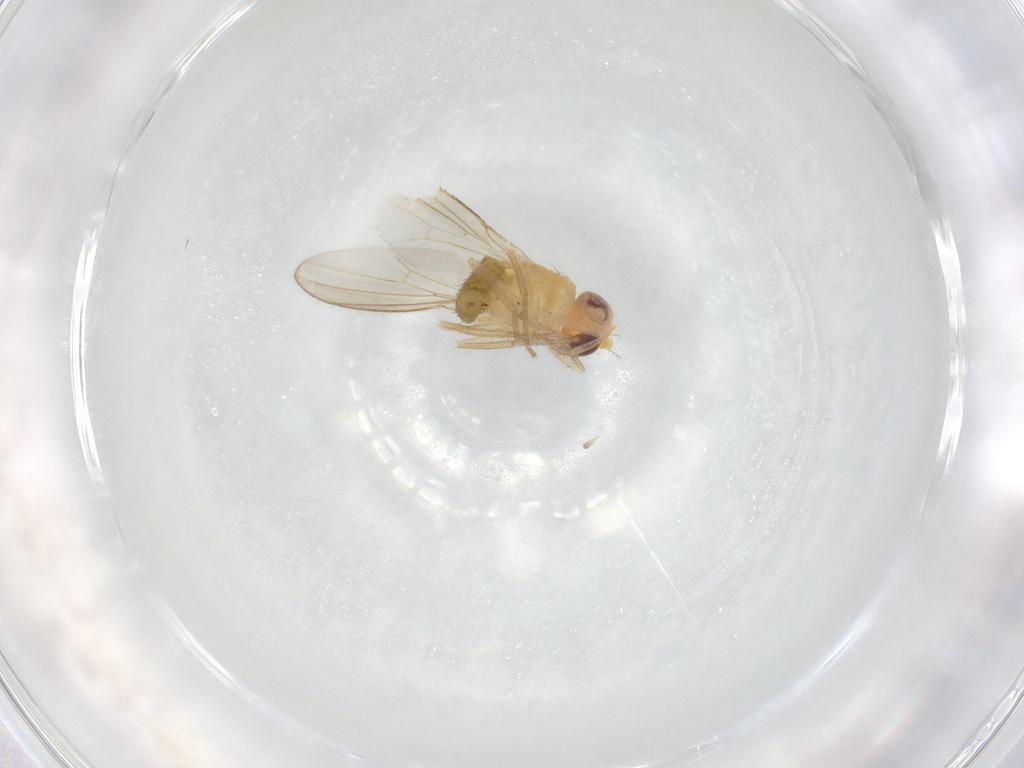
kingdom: Animalia
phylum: Arthropoda
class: Insecta
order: Diptera
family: Drosophilidae
